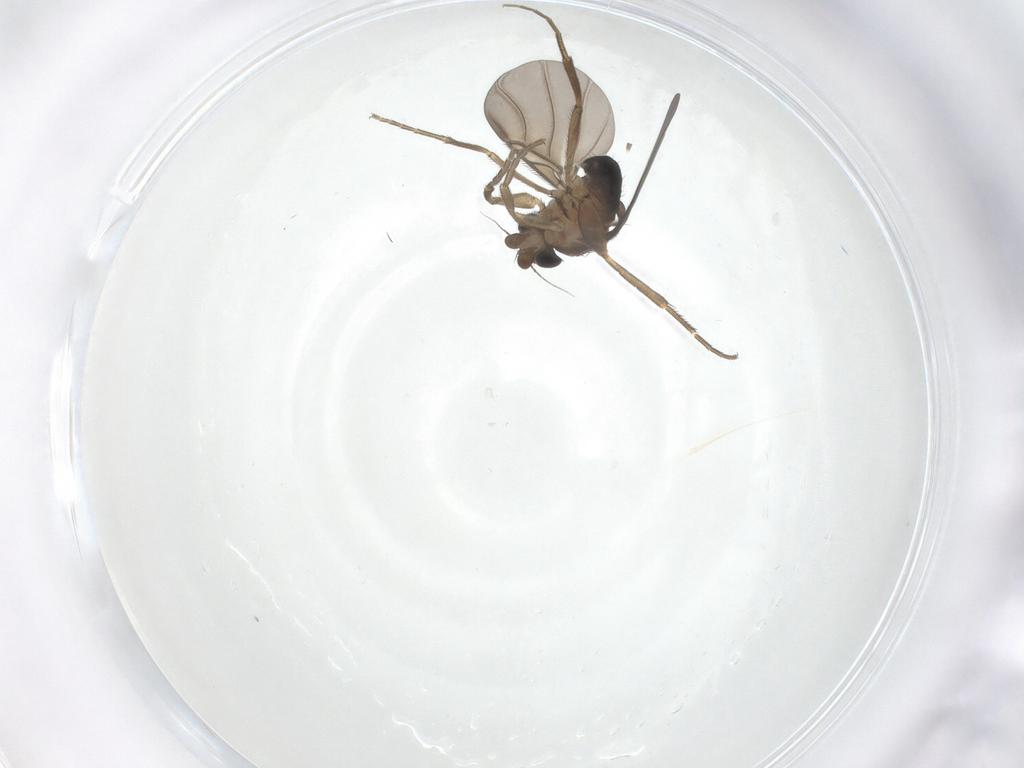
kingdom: Animalia
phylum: Arthropoda
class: Insecta
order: Diptera
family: Phoridae
